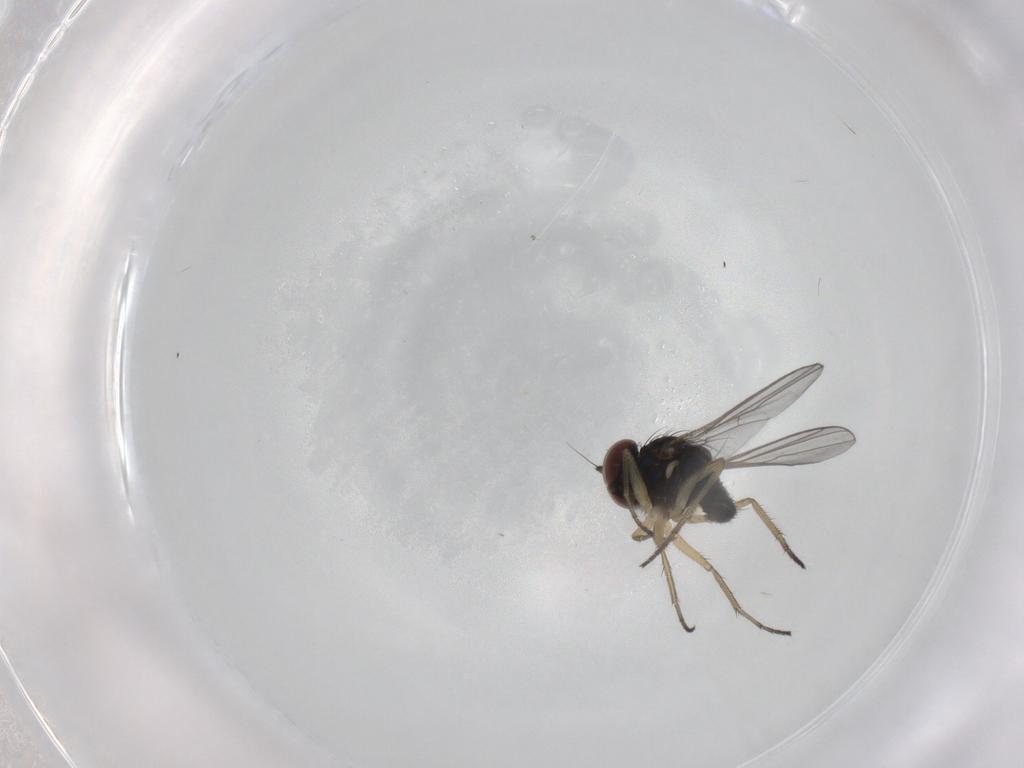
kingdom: Animalia
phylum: Arthropoda
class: Insecta
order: Diptera
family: Dolichopodidae
